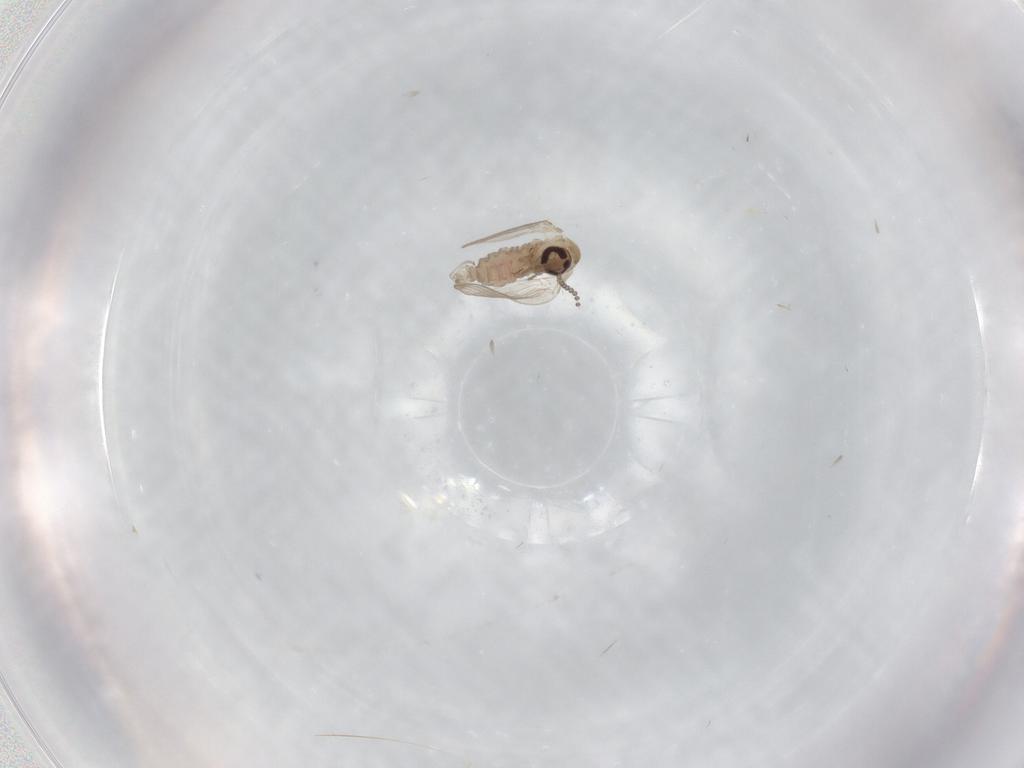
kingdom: Animalia
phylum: Arthropoda
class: Insecta
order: Diptera
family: Psychodidae
